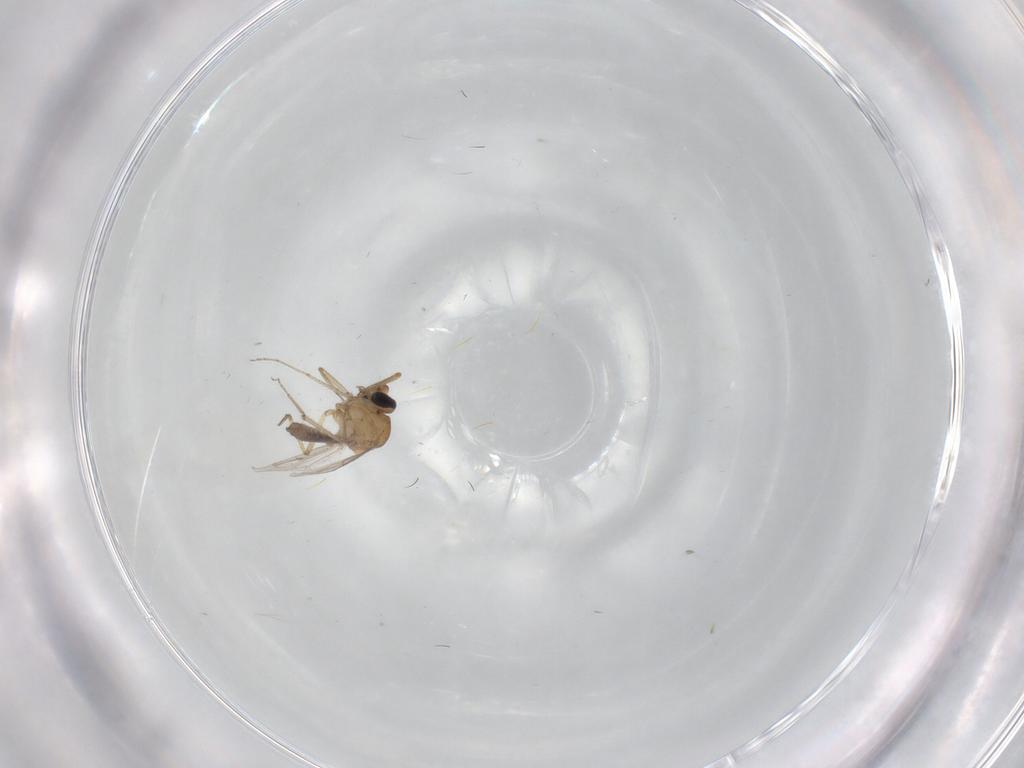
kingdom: Animalia
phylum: Arthropoda
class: Insecta
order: Diptera
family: Ceratopogonidae
